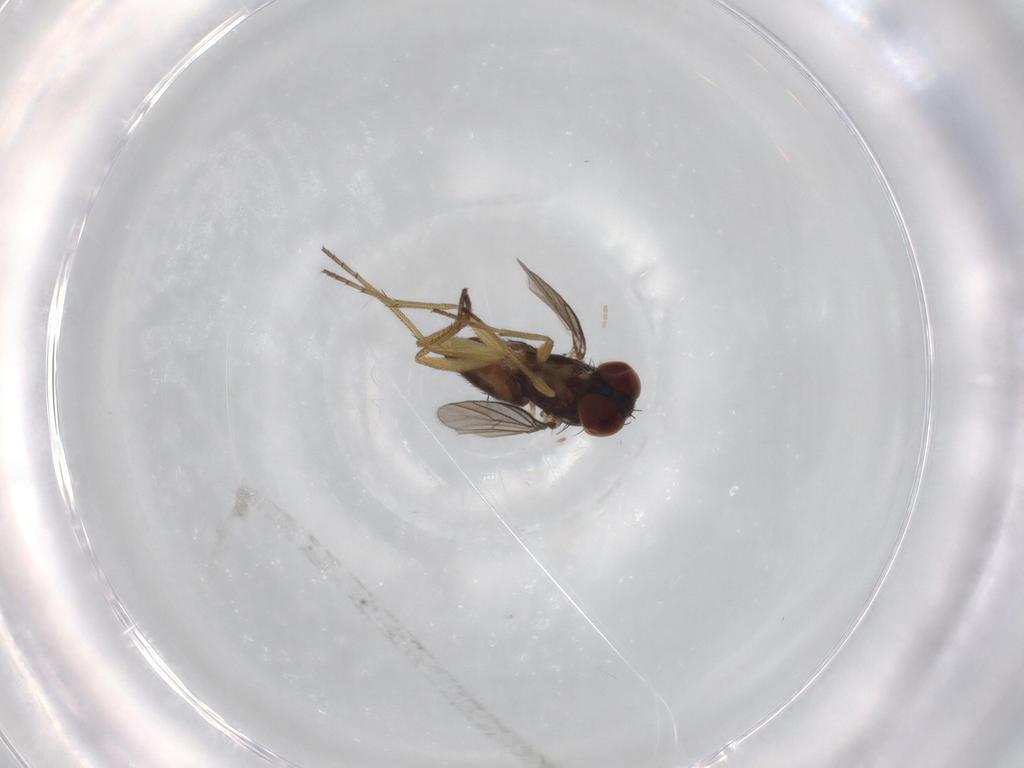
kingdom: Animalia
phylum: Arthropoda
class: Insecta
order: Diptera
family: Dolichopodidae
